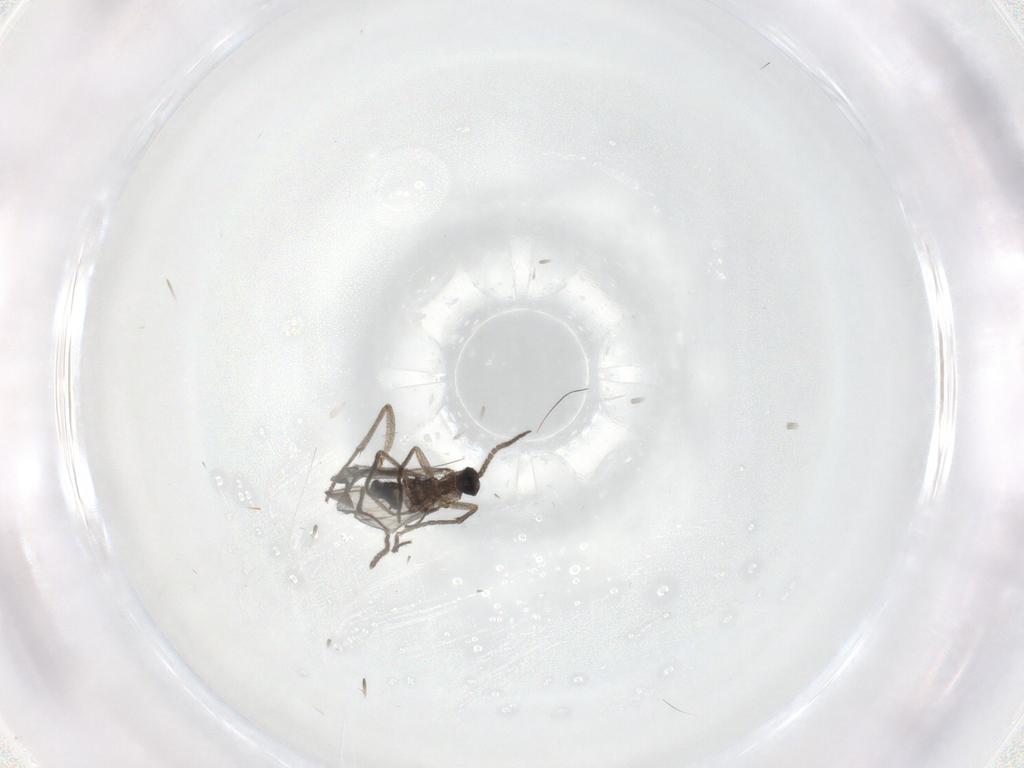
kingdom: Animalia
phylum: Arthropoda
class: Insecta
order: Diptera
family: Sciaridae
